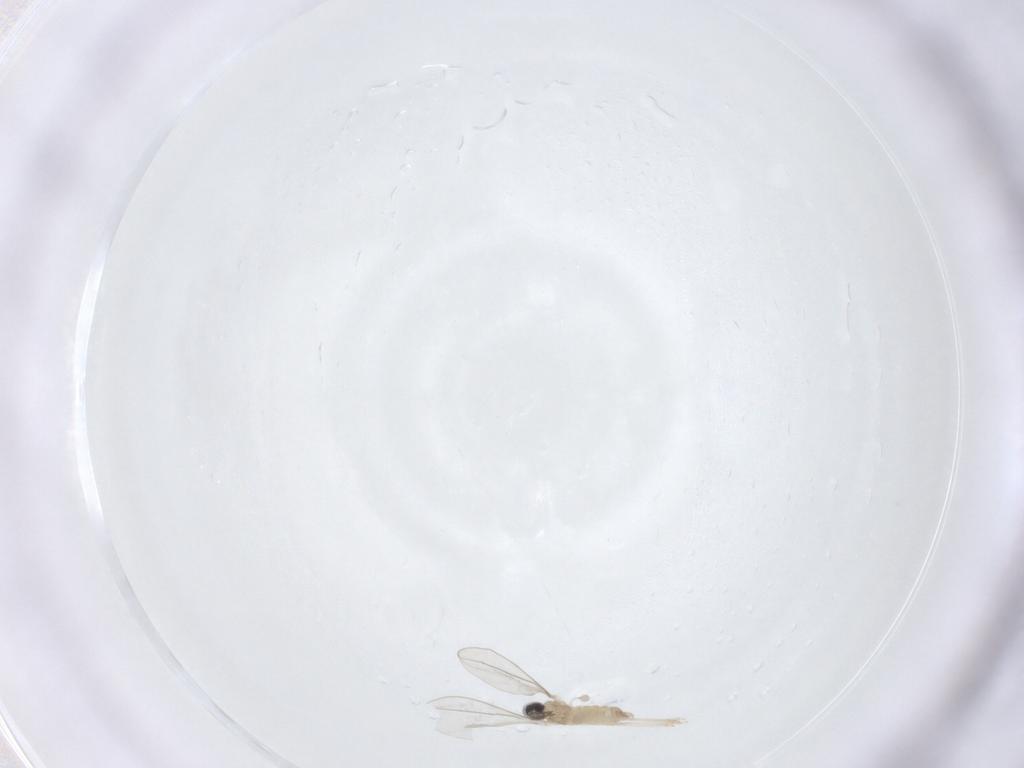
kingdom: Animalia
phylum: Arthropoda
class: Insecta
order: Diptera
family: Cecidomyiidae
